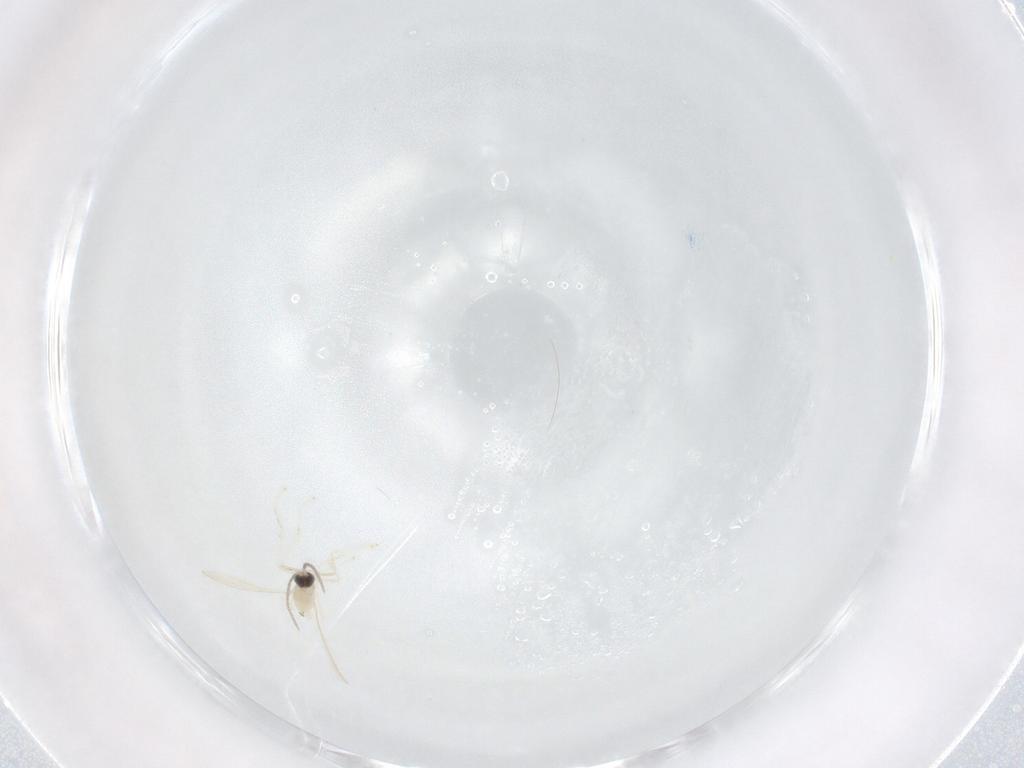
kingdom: Animalia
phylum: Arthropoda
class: Insecta
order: Diptera
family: Cecidomyiidae
